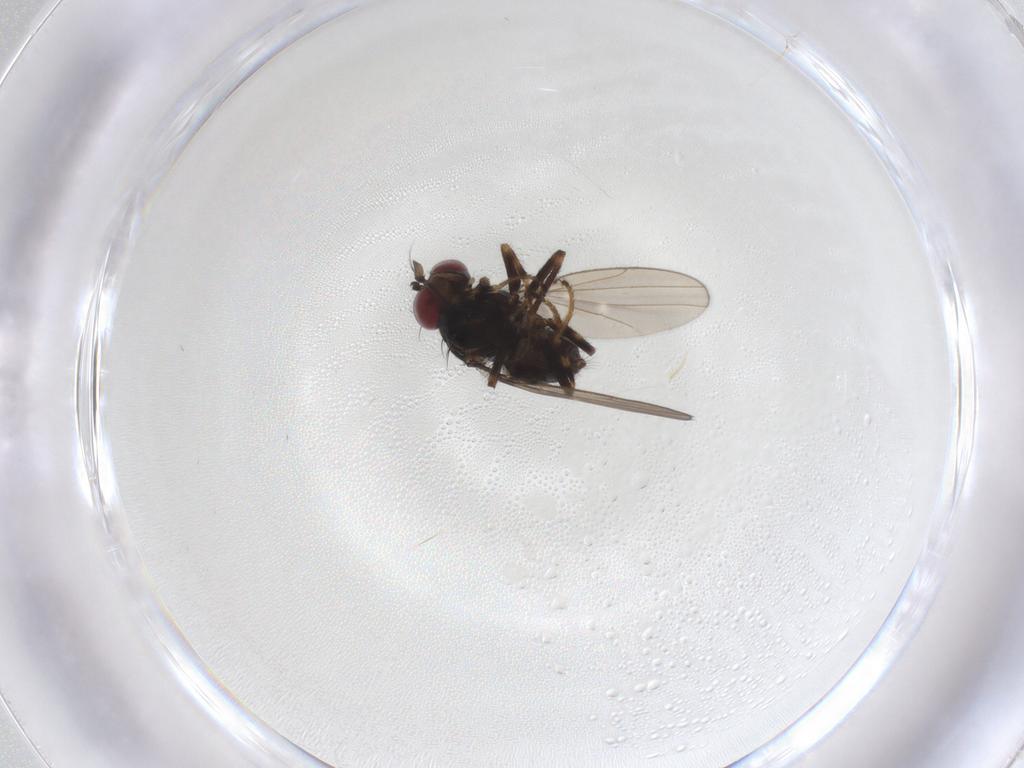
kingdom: Animalia
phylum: Arthropoda
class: Insecta
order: Diptera
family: Ephydridae
